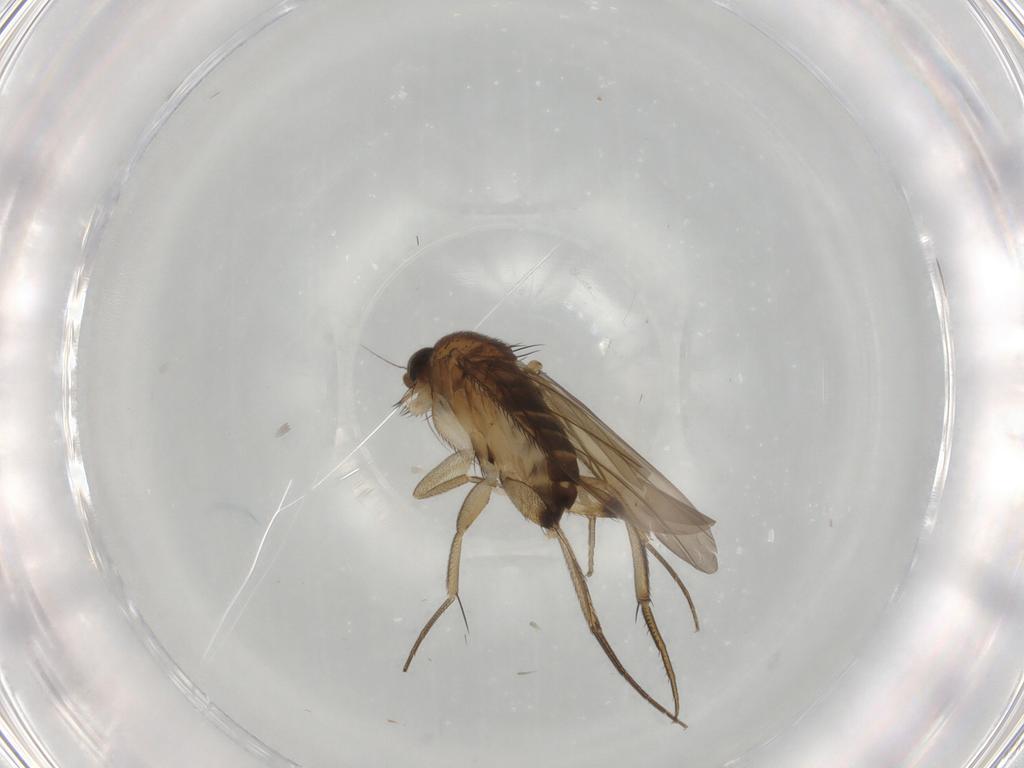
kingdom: Animalia
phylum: Arthropoda
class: Insecta
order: Diptera
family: Phoridae
